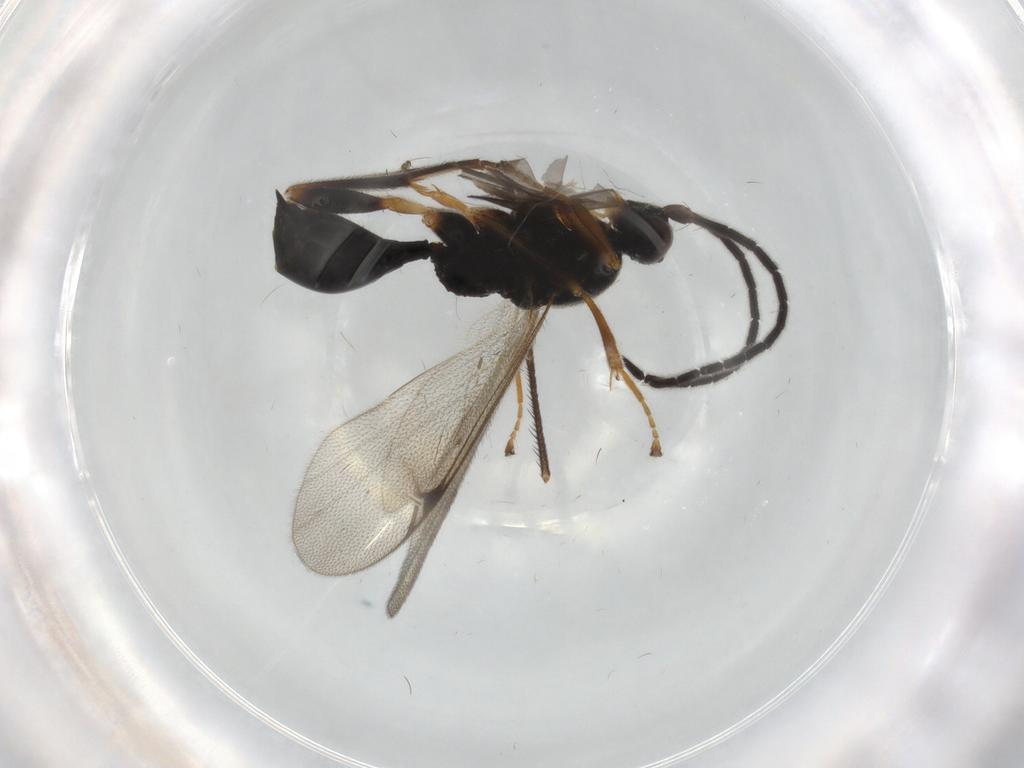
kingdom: Animalia
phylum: Arthropoda
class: Insecta
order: Hymenoptera
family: Proctotrupidae
